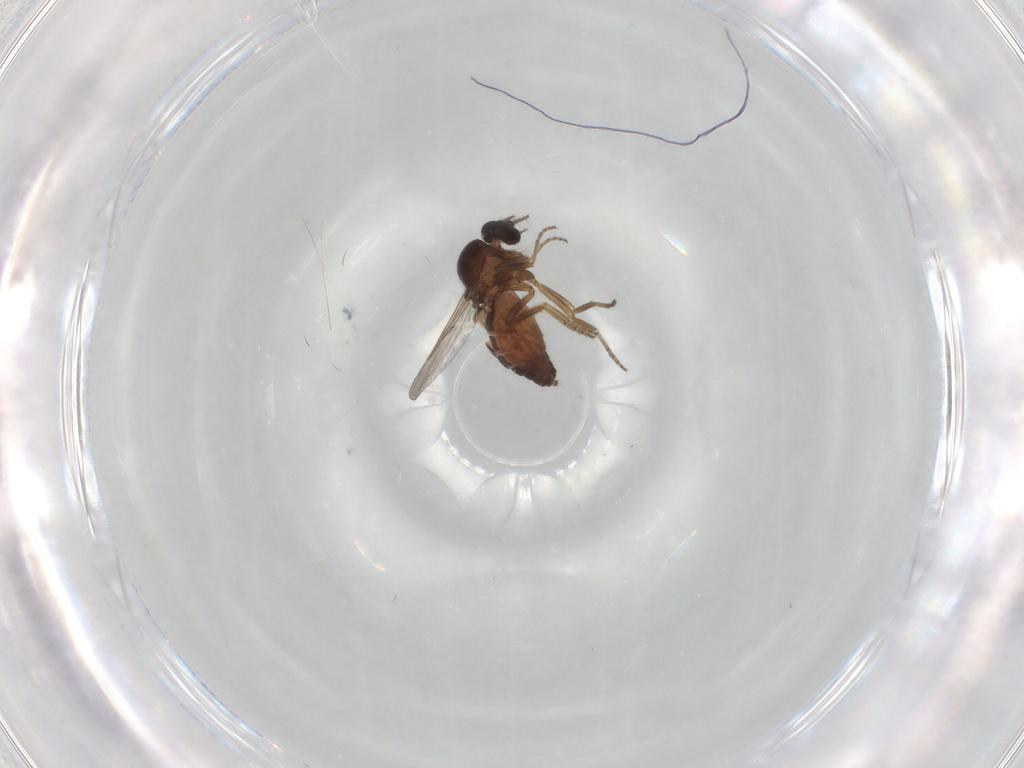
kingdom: Animalia
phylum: Arthropoda
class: Insecta
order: Diptera
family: Ceratopogonidae
